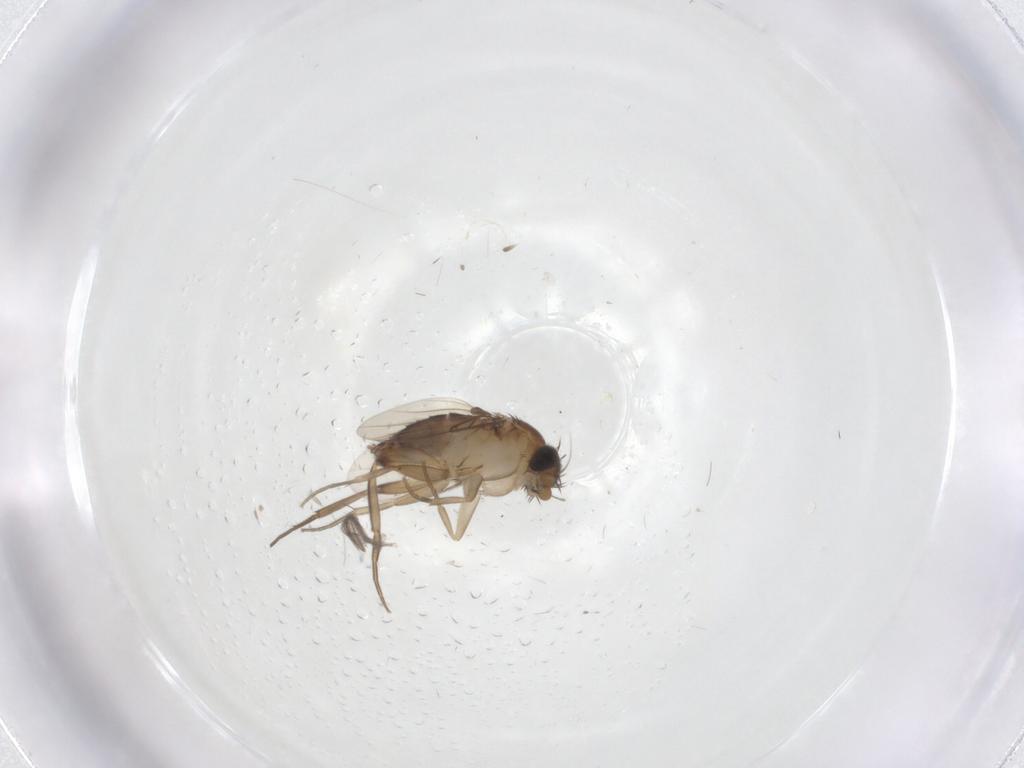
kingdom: Animalia
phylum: Arthropoda
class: Insecta
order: Diptera
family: Phoridae
